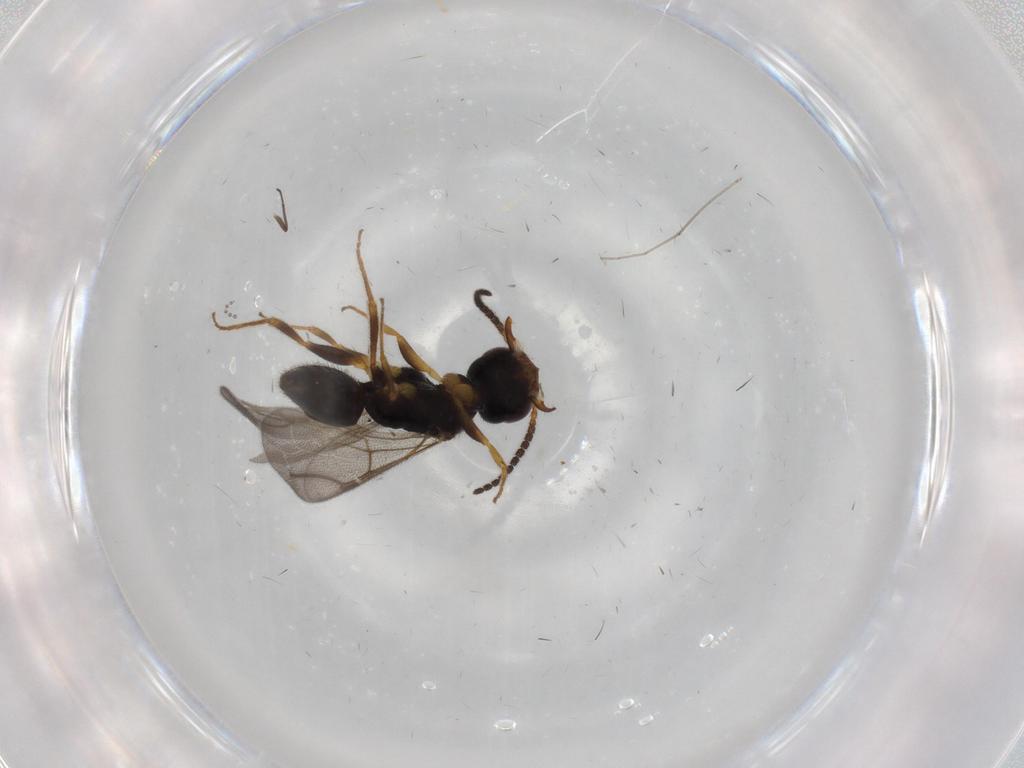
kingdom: Animalia
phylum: Arthropoda
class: Insecta
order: Hymenoptera
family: Bethylidae
